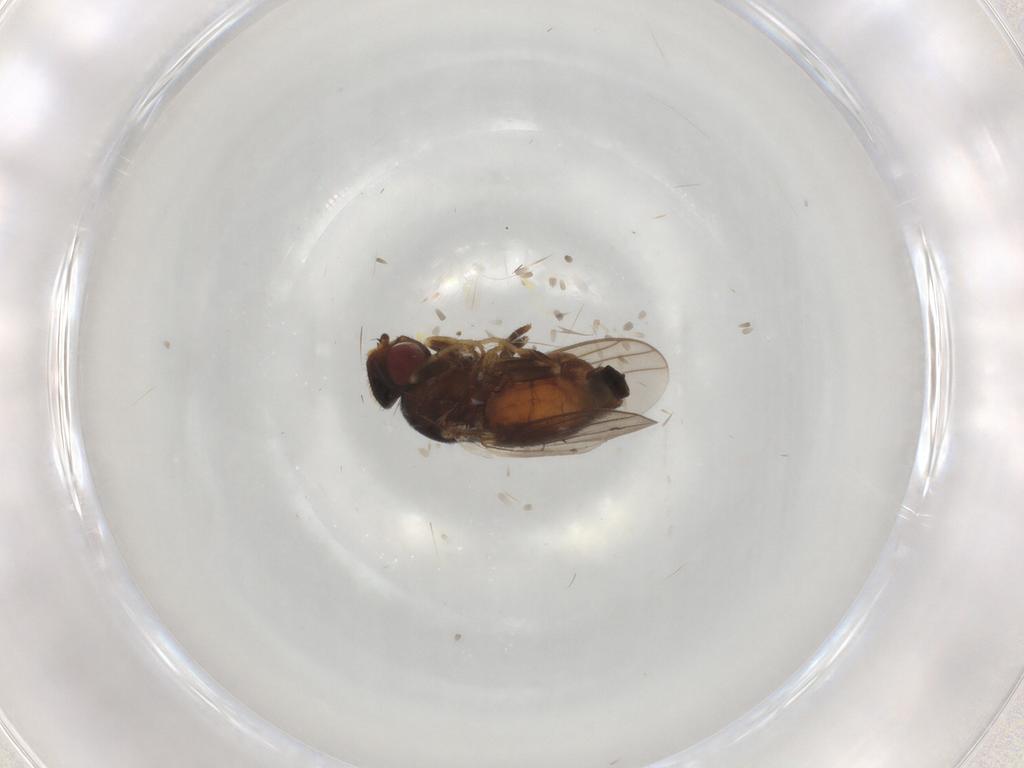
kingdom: Animalia
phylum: Arthropoda
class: Insecta
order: Diptera
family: Chloropidae
